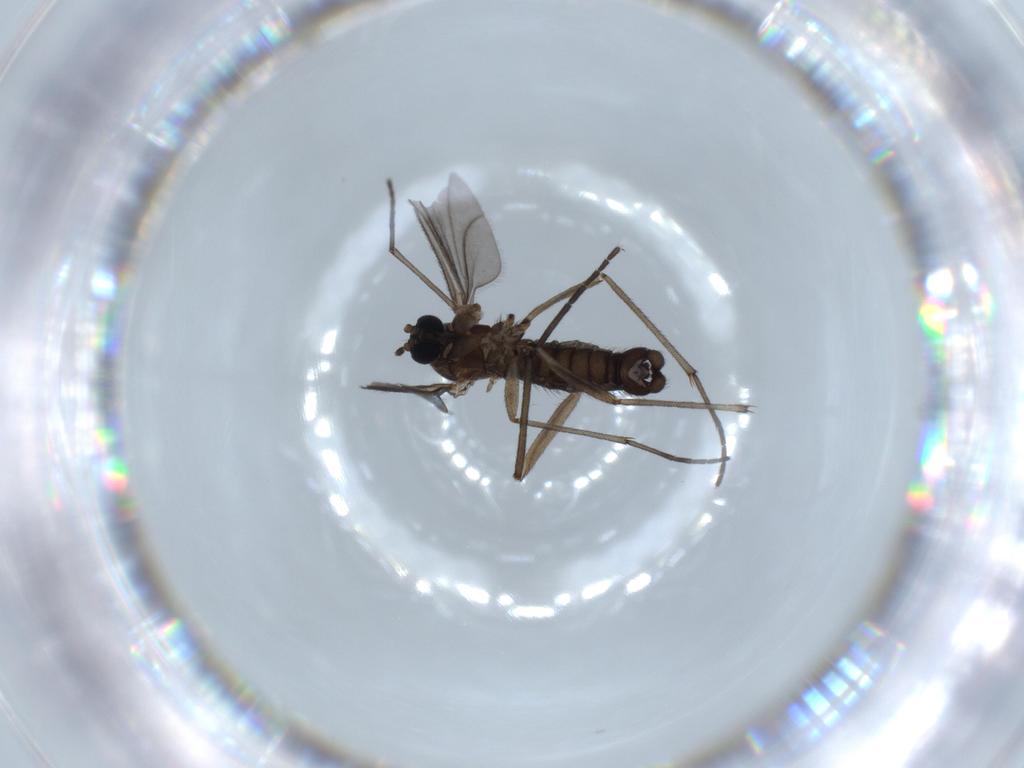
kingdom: Animalia
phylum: Arthropoda
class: Insecta
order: Diptera
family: Sciaridae
